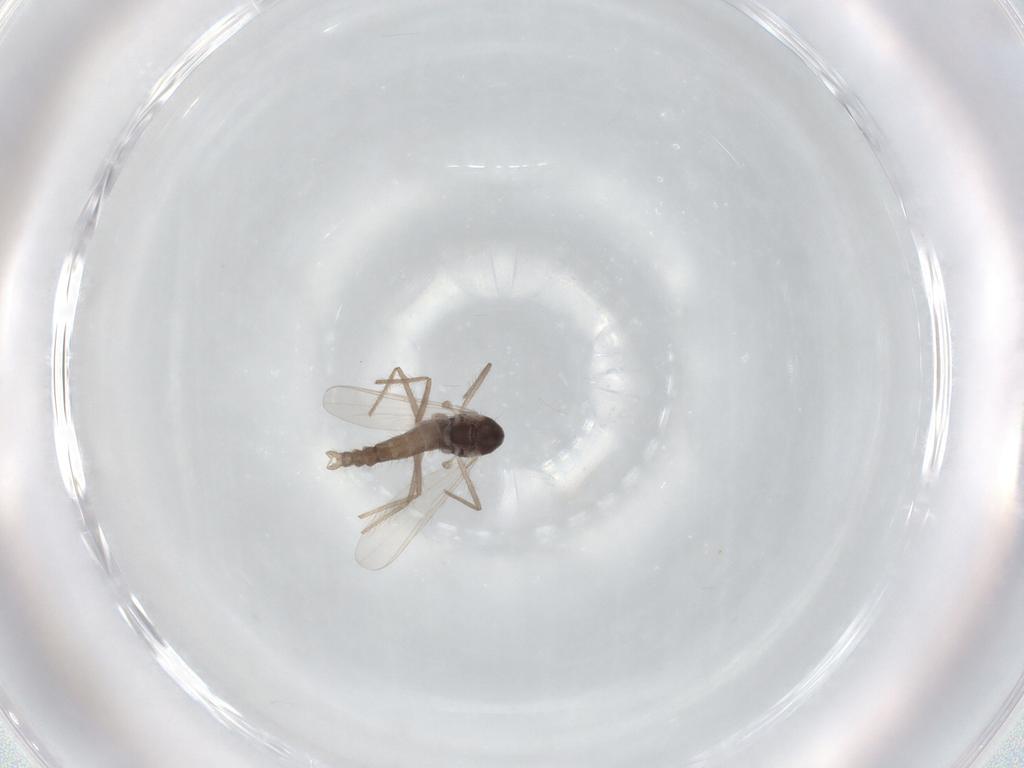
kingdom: Animalia
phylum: Arthropoda
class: Insecta
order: Diptera
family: Chironomidae
